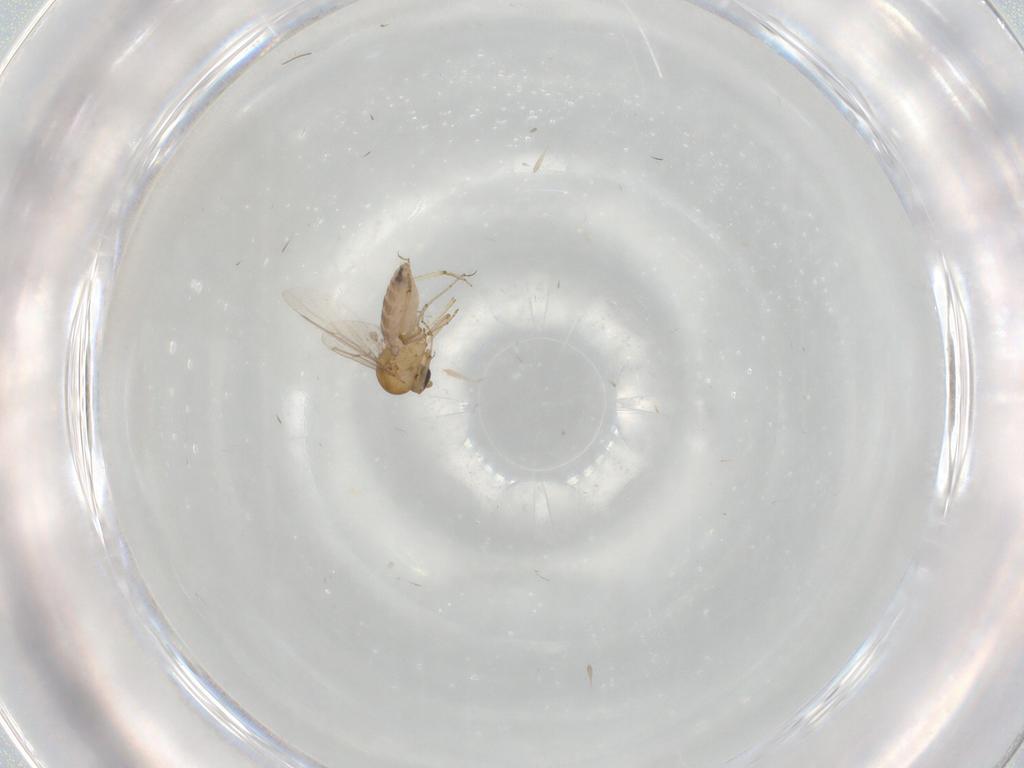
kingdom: Animalia
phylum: Arthropoda
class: Insecta
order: Diptera
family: Ceratopogonidae
